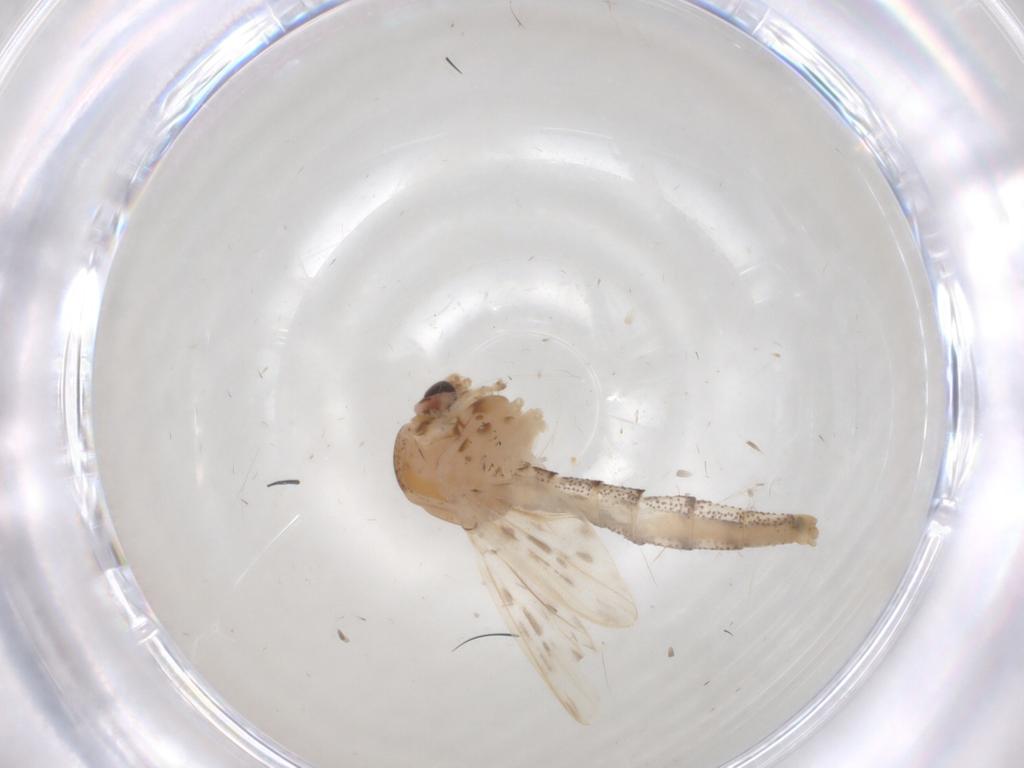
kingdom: Animalia
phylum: Arthropoda
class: Insecta
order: Diptera
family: Chaoboridae
